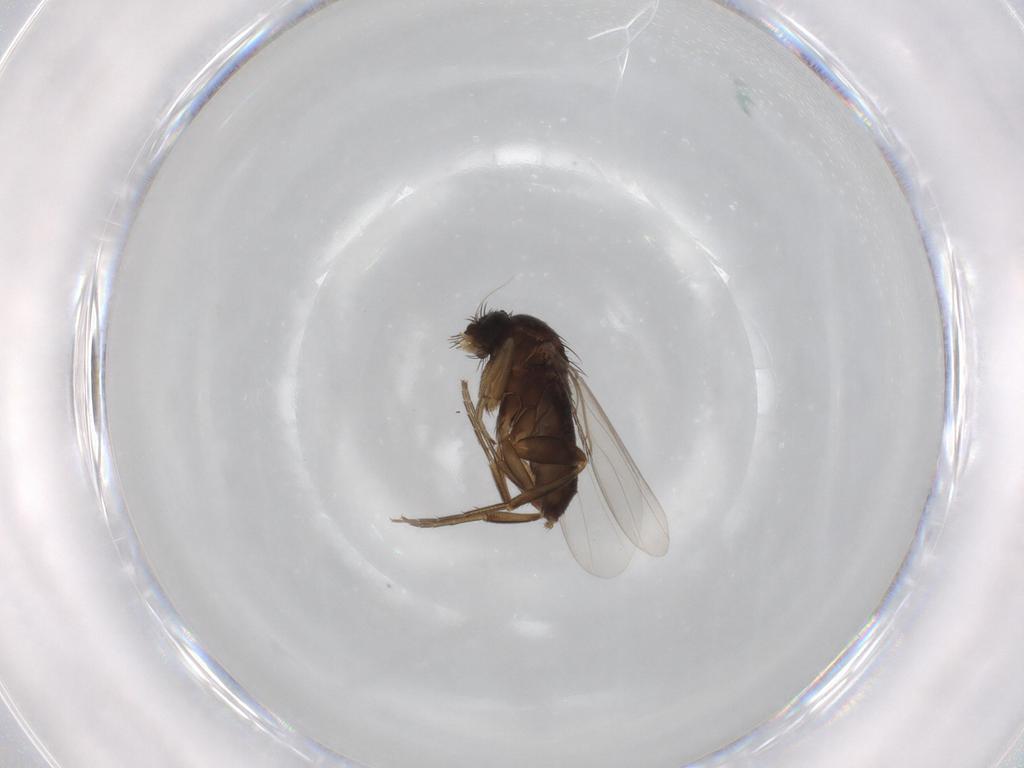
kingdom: Animalia
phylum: Arthropoda
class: Insecta
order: Diptera
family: Phoridae
